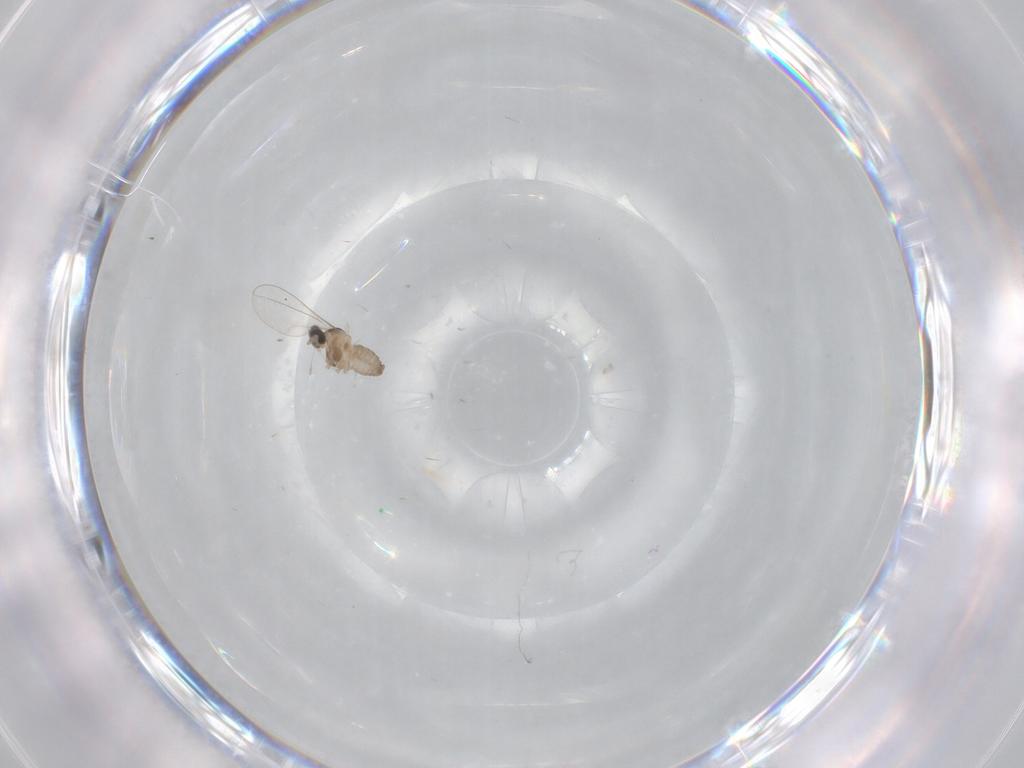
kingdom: Animalia
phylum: Arthropoda
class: Insecta
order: Diptera
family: Cecidomyiidae
